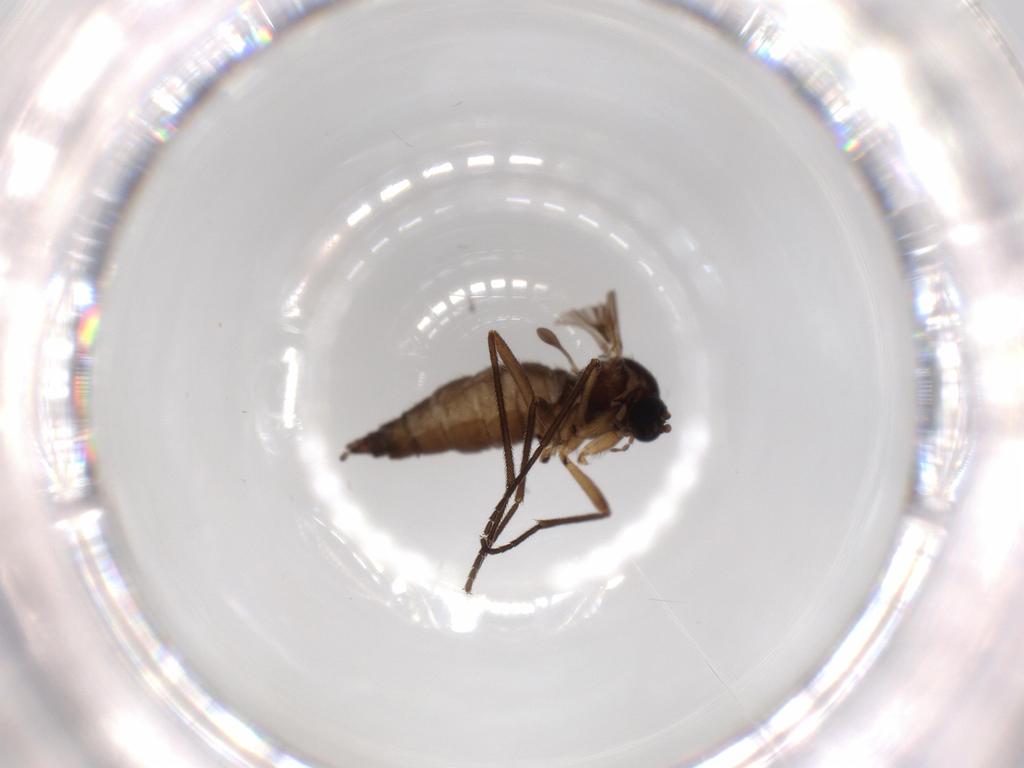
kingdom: Animalia
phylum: Arthropoda
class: Insecta
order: Diptera
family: Sciaridae
